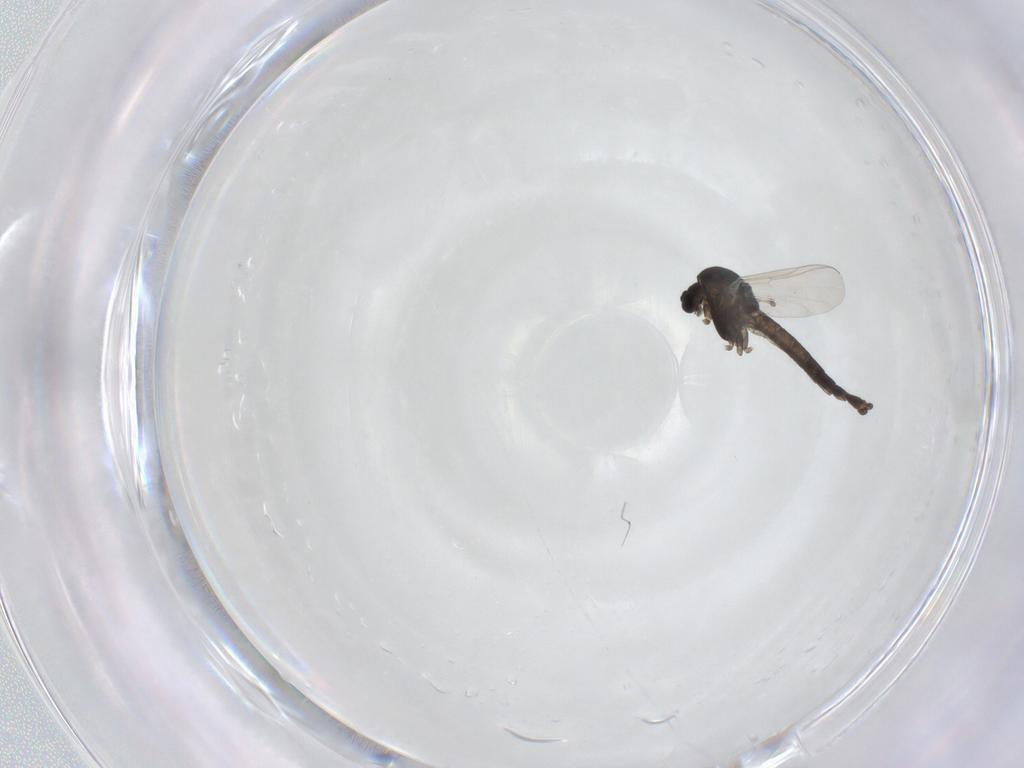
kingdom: Animalia
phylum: Arthropoda
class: Insecta
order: Diptera
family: Chironomidae
